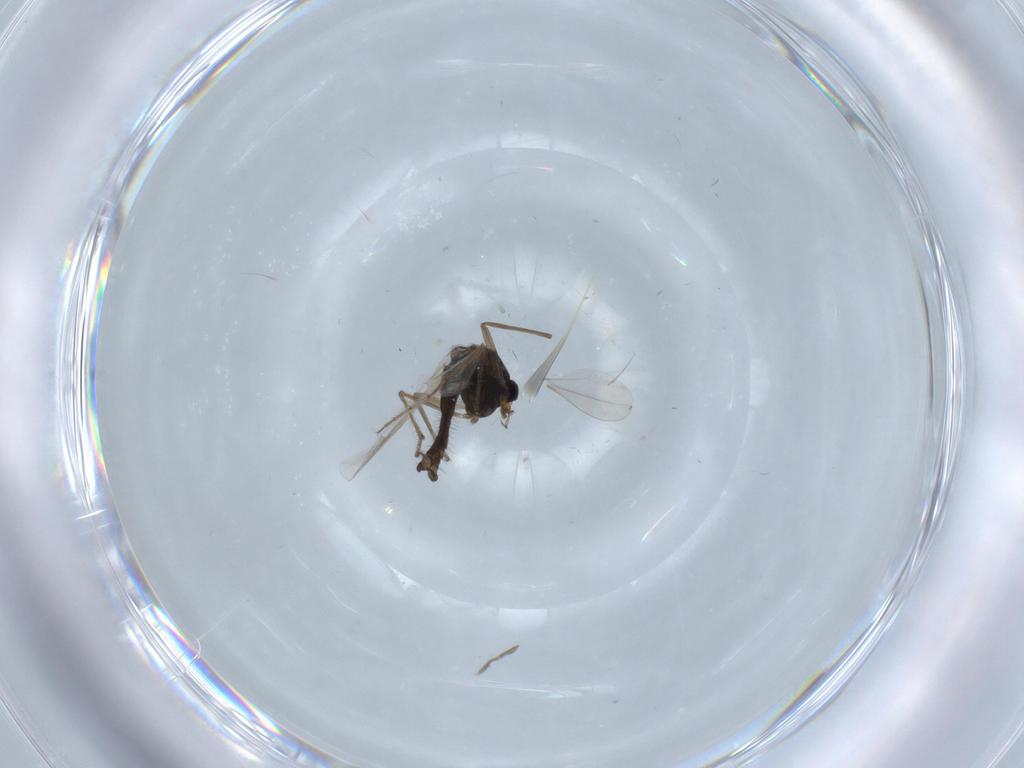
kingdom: Animalia
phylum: Arthropoda
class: Insecta
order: Diptera
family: Chironomidae
